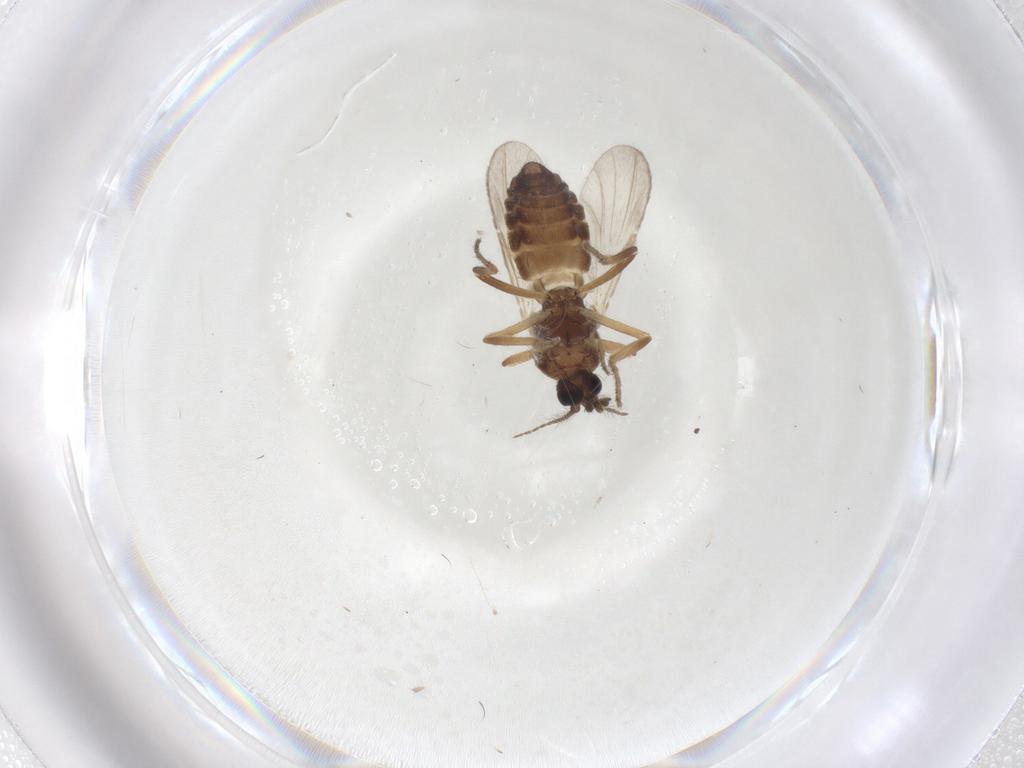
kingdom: Animalia
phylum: Arthropoda
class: Insecta
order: Diptera
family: Ceratopogonidae
